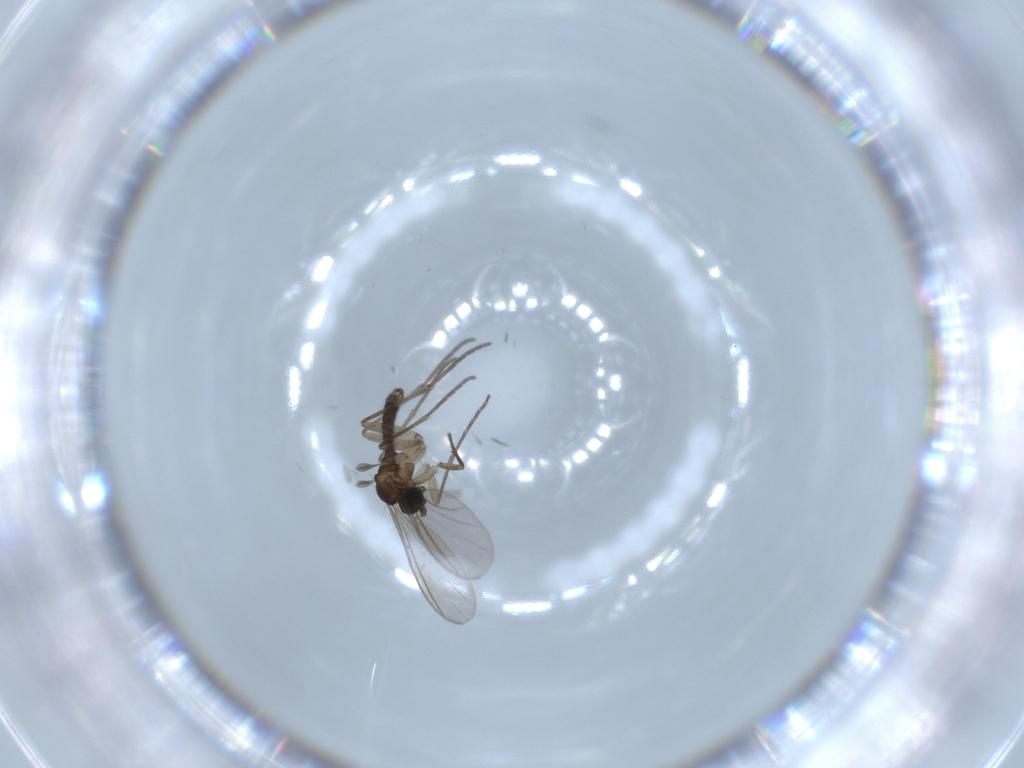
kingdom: Animalia
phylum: Arthropoda
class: Insecta
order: Diptera
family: Sciaridae
